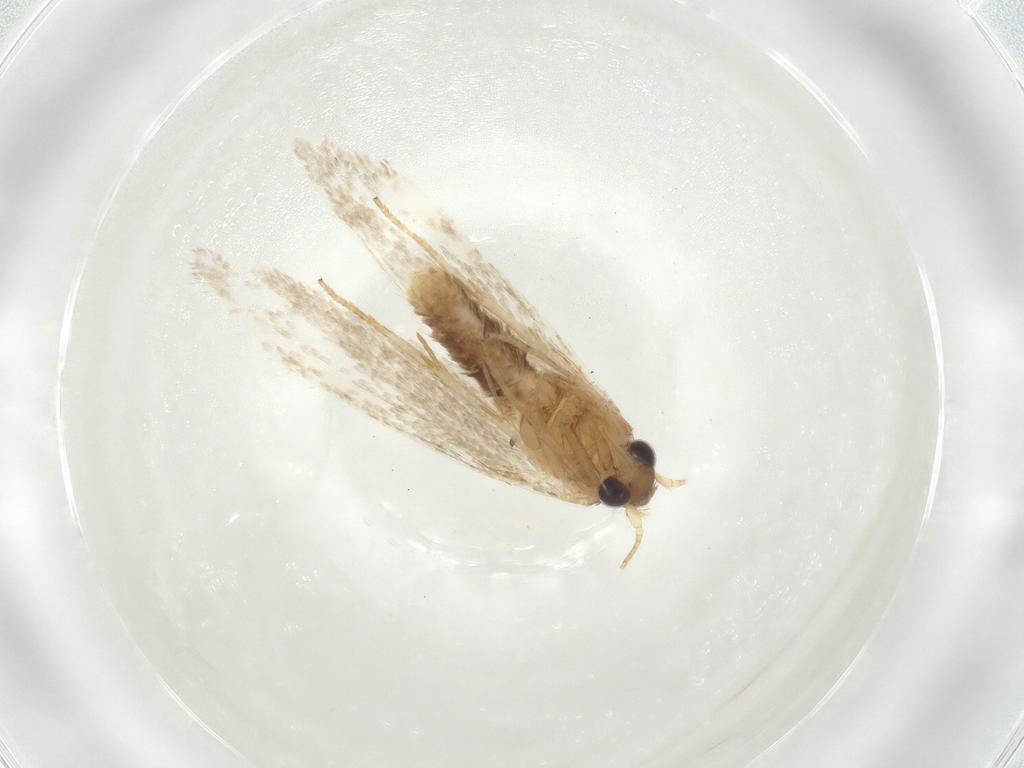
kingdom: Animalia
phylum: Arthropoda
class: Insecta
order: Lepidoptera
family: Blastobasidae
